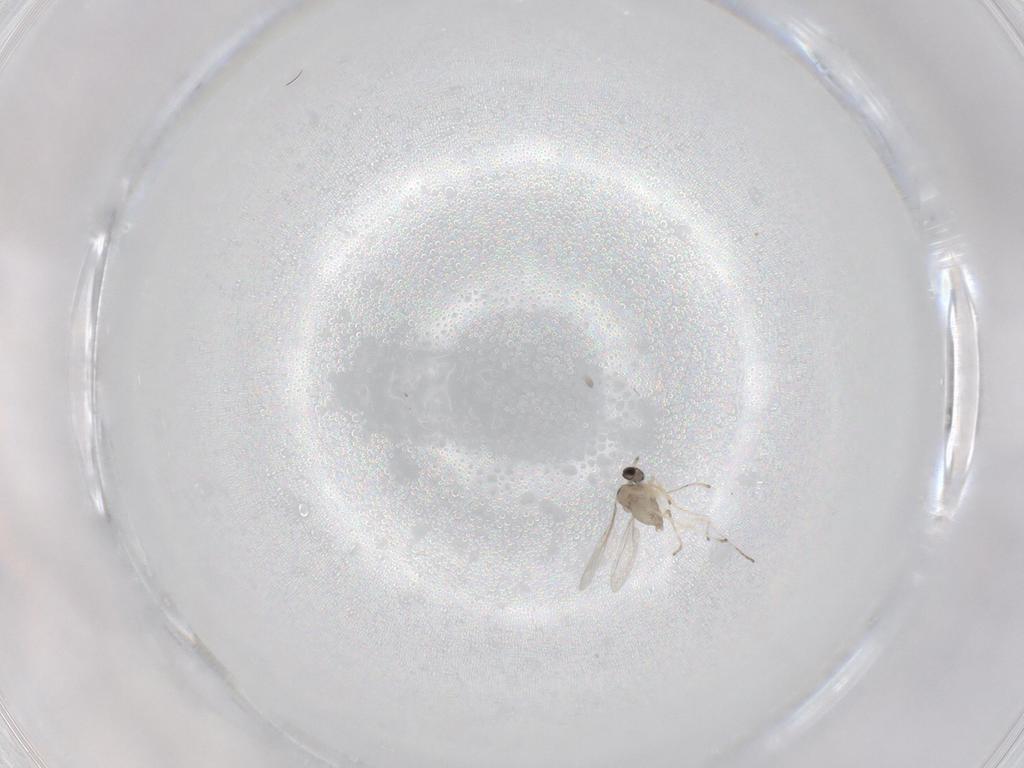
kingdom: Animalia
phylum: Arthropoda
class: Insecta
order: Diptera
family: Cecidomyiidae
